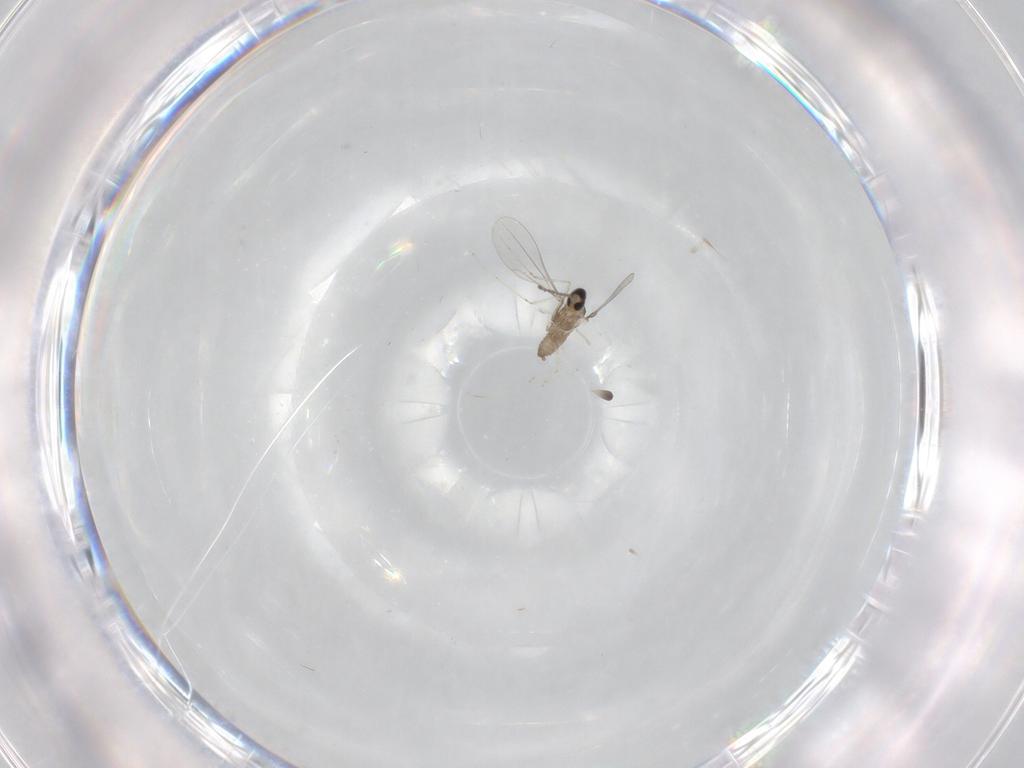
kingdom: Animalia
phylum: Arthropoda
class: Insecta
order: Diptera
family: Phoridae
